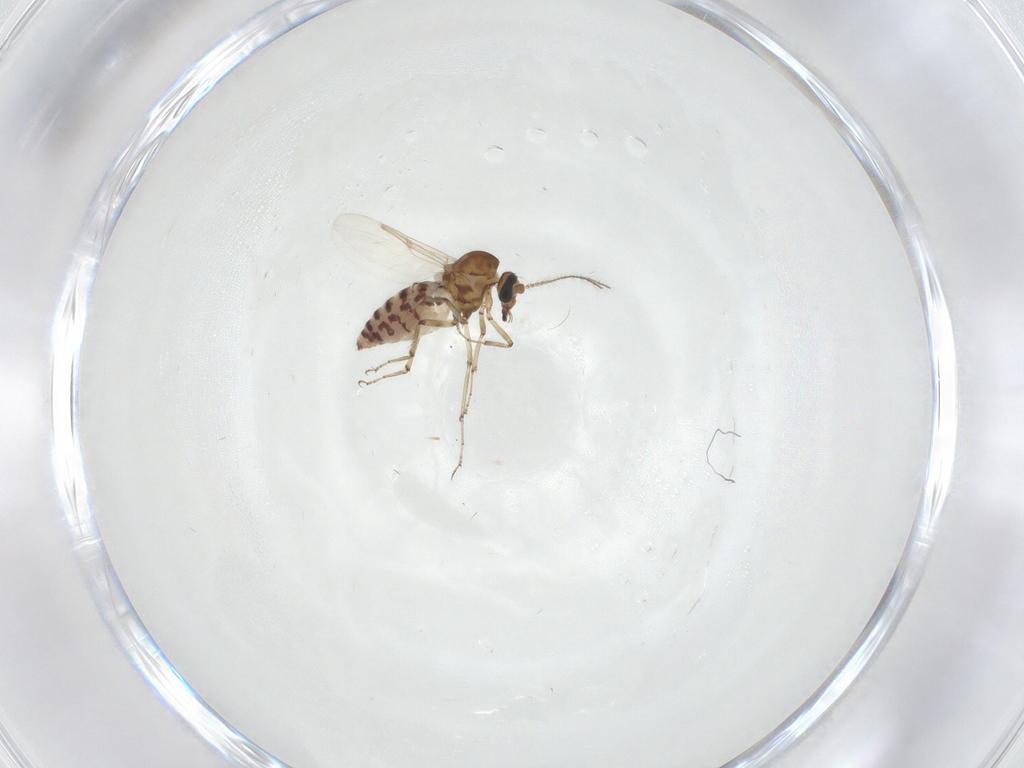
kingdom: Animalia
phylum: Arthropoda
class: Insecta
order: Diptera
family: Ceratopogonidae
